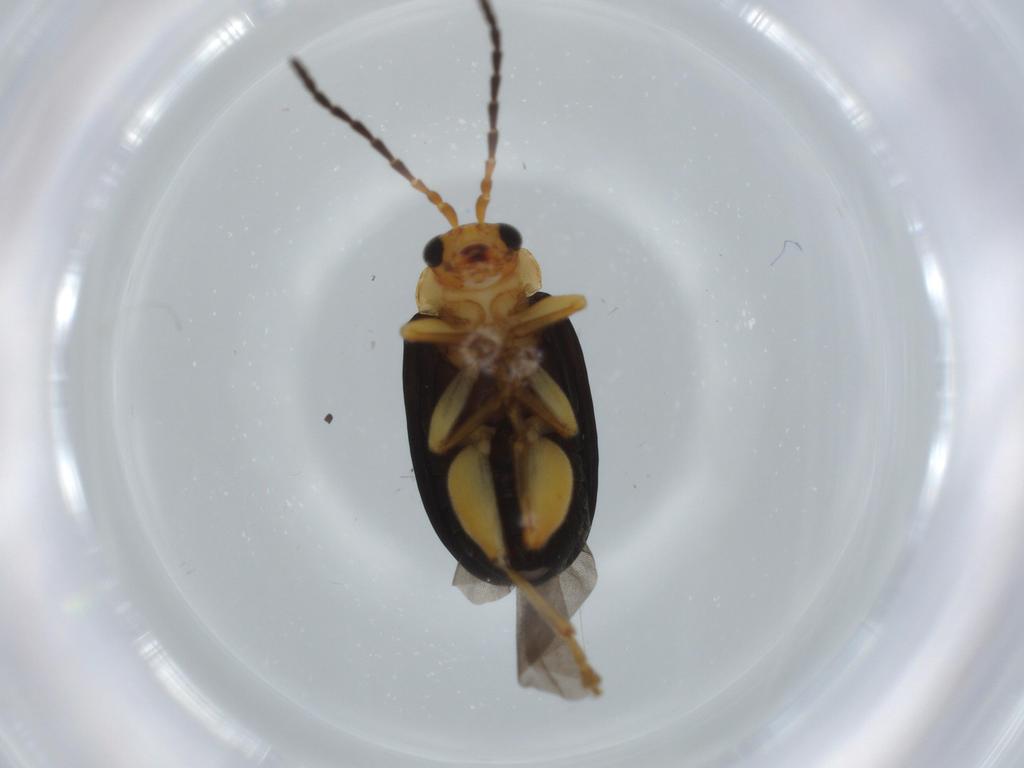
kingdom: Animalia
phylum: Arthropoda
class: Insecta
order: Coleoptera
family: Chrysomelidae
